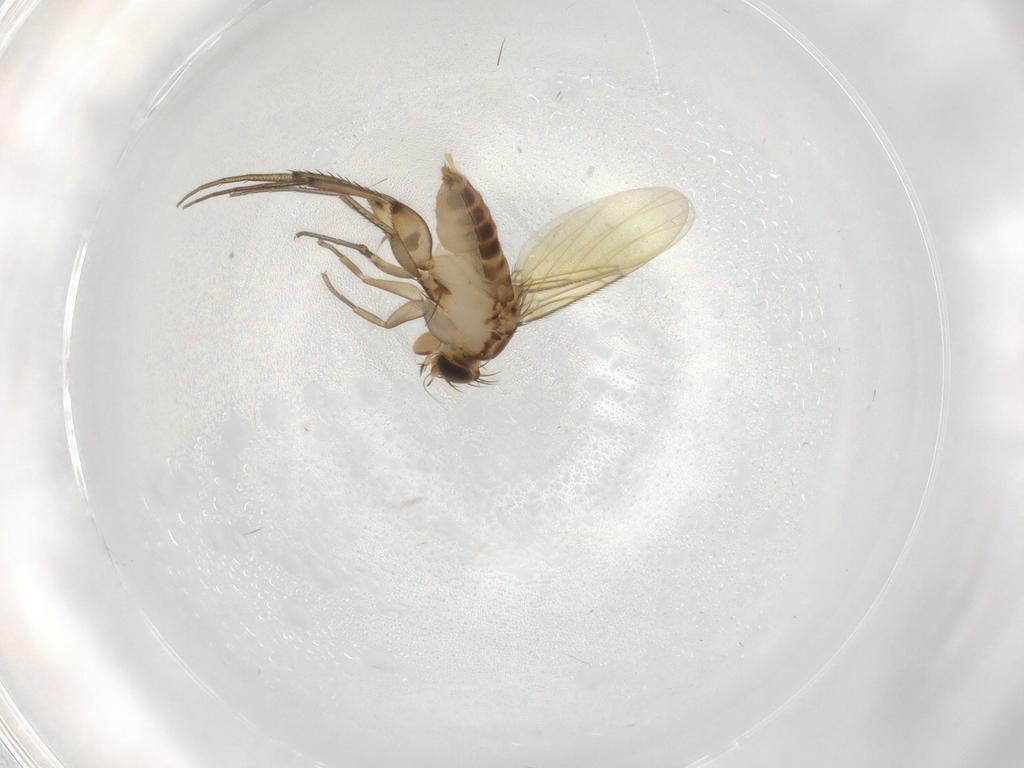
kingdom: Animalia
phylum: Arthropoda
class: Insecta
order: Diptera
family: Phoridae
